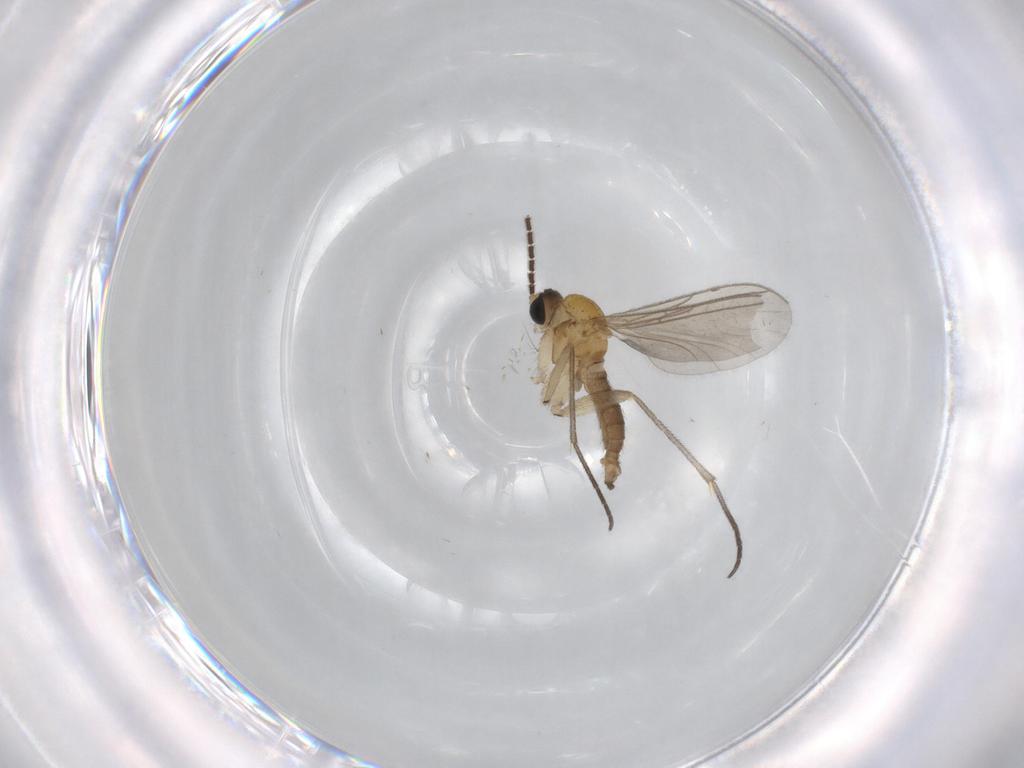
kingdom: Animalia
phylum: Arthropoda
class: Insecta
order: Diptera
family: Sciaridae
